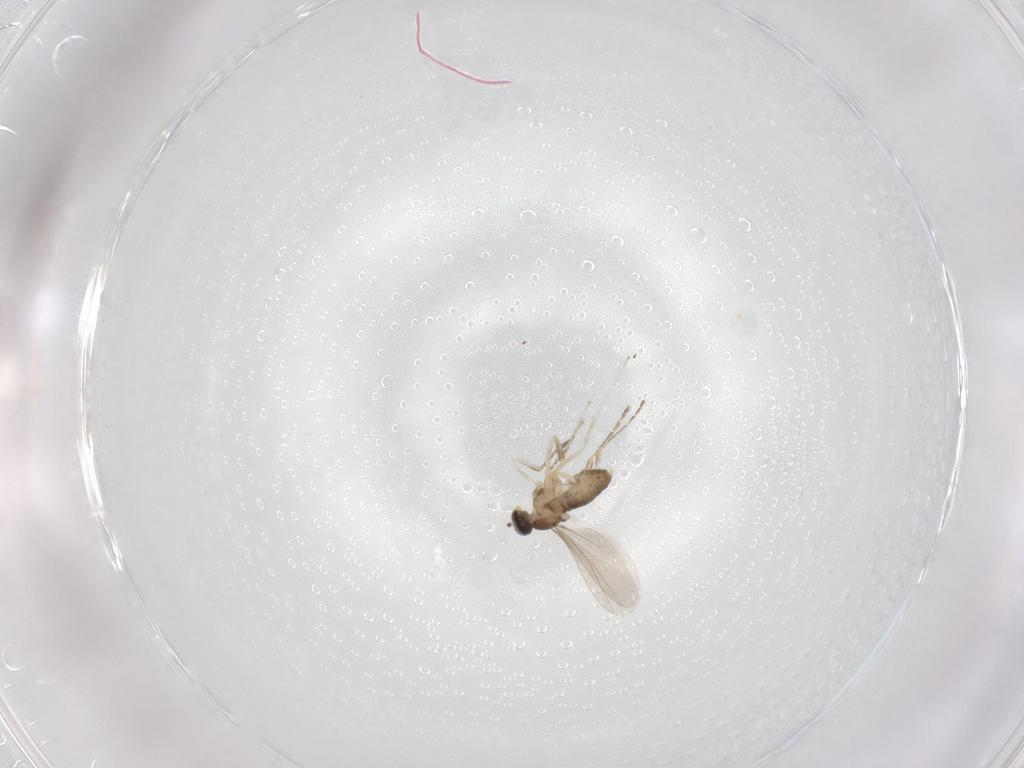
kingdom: Animalia
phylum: Arthropoda
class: Insecta
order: Diptera
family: Cecidomyiidae
